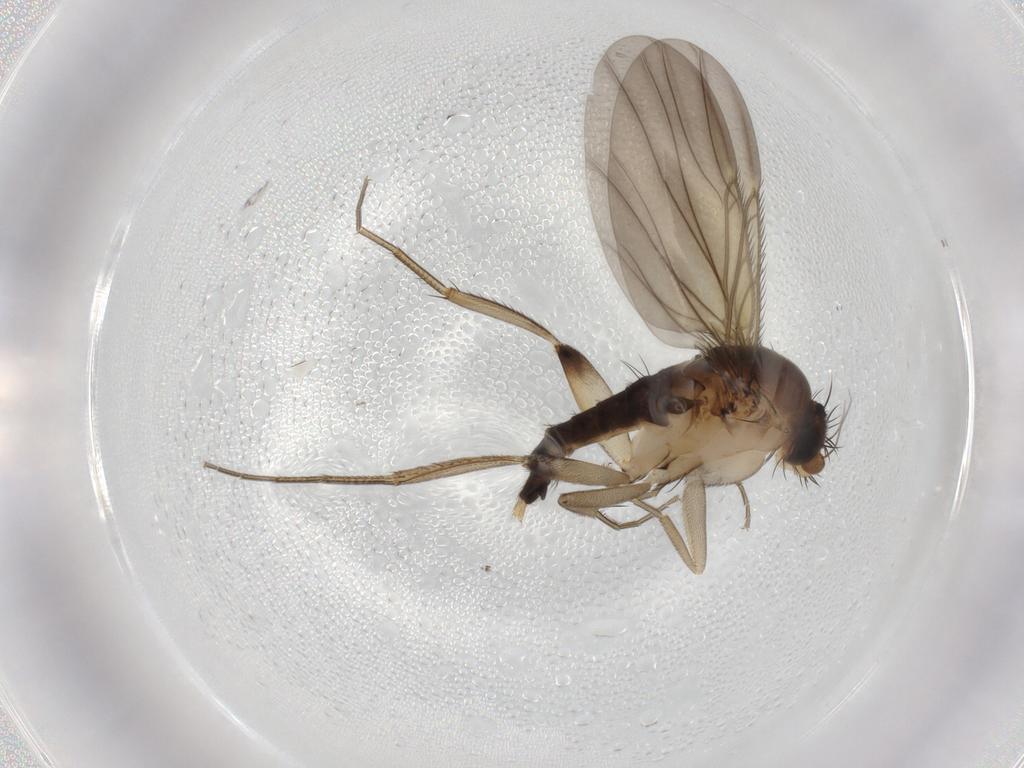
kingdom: Animalia
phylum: Arthropoda
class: Insecta
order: Diptera
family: Phoridae
